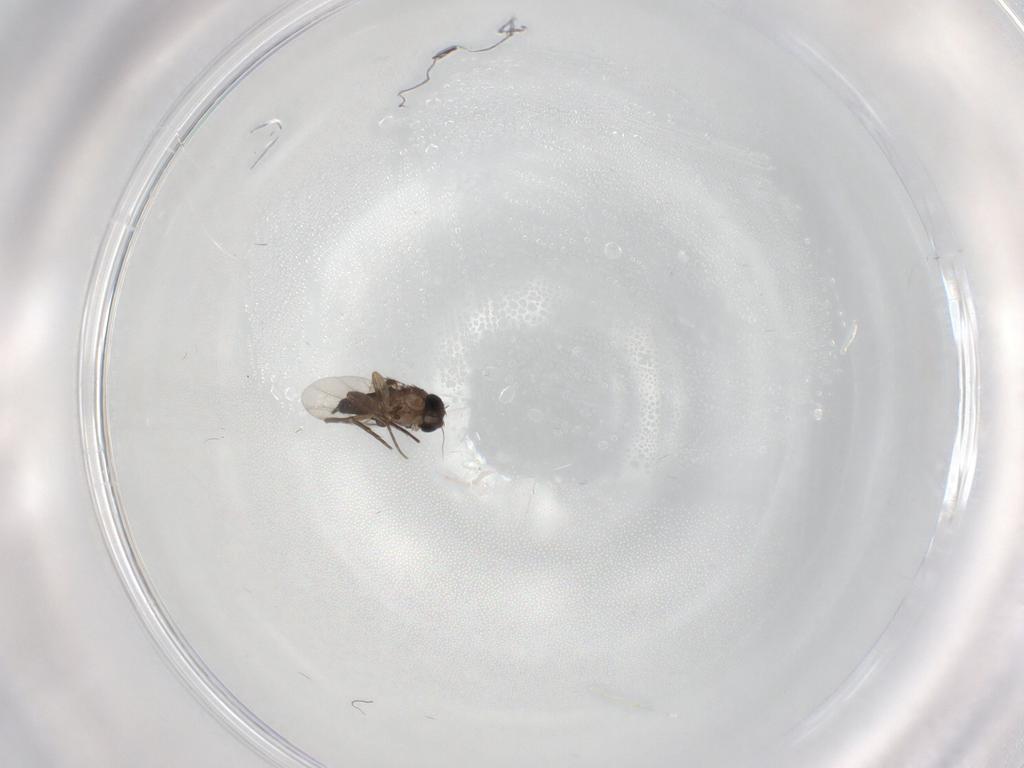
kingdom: Animalia
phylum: Arthropoda
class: Insecta
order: Diptera
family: Phoridae
